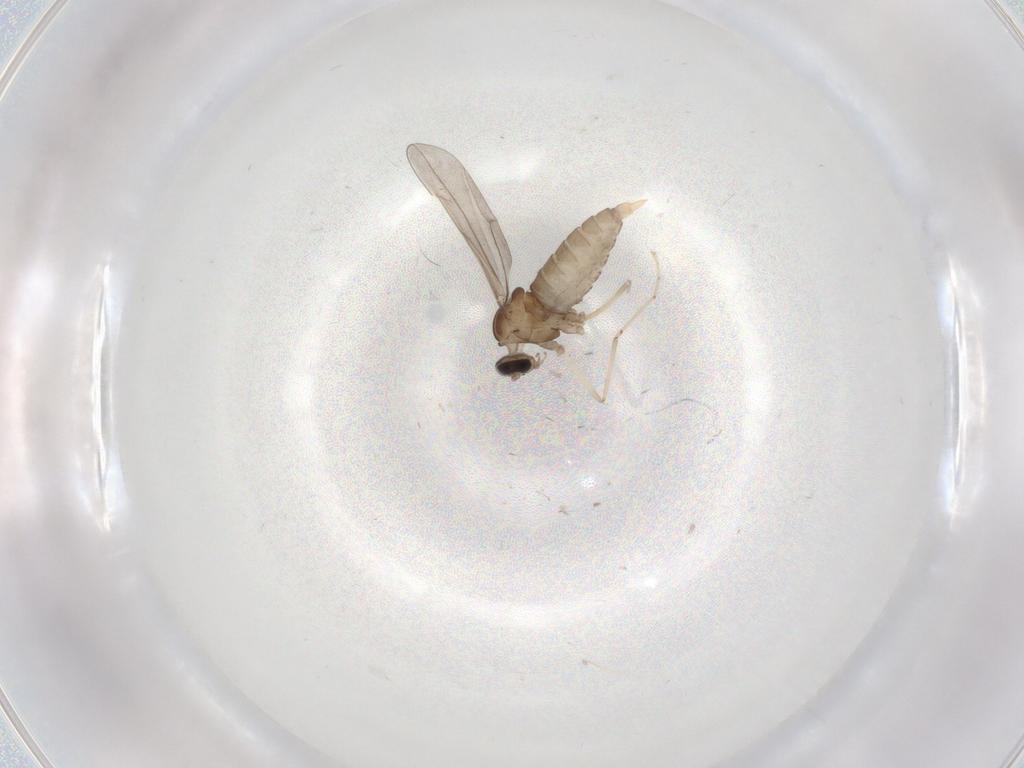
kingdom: Animalia
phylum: Arthropoda
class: Insecta
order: Diptera
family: Cecidomyiidae
